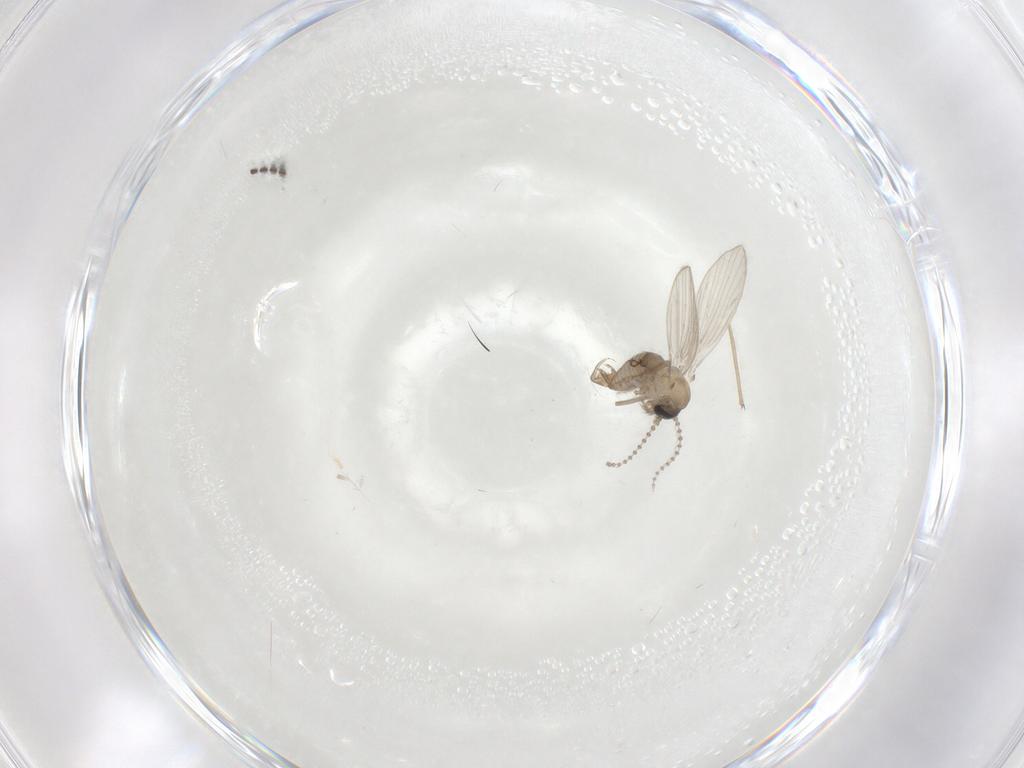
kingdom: Animalia
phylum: Arthropoda
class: Insecta
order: Diptera
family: Psychodidae
